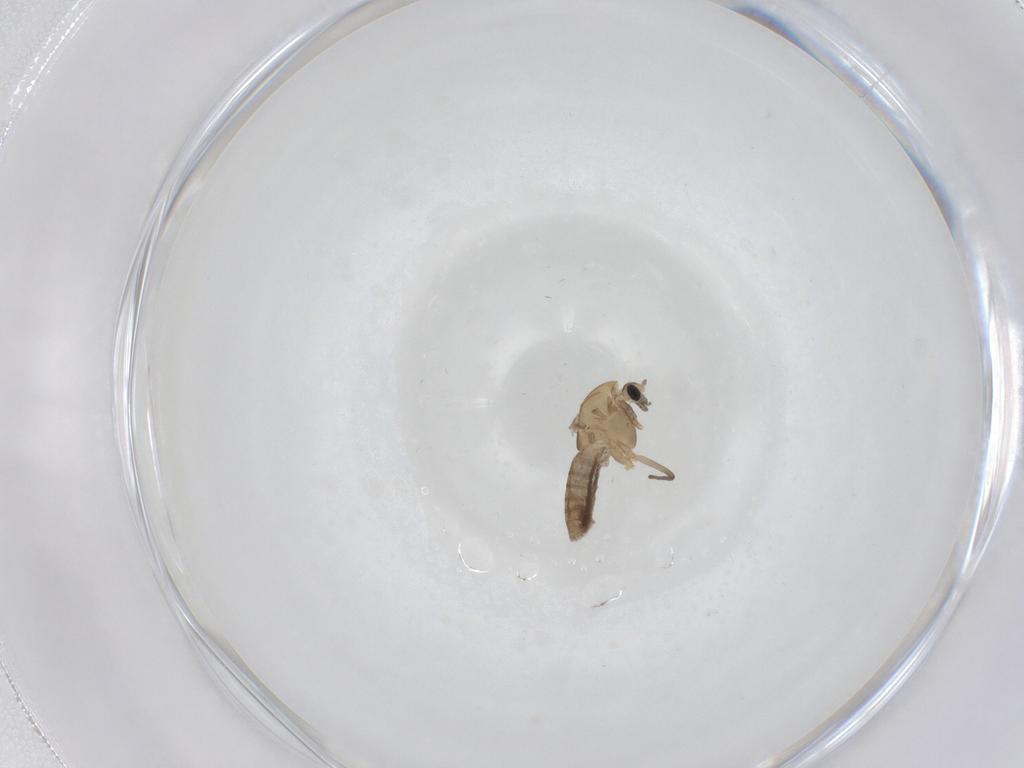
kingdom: Animalia
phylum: Arthropoda
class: Insecta
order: Diptera
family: Chironomidae
